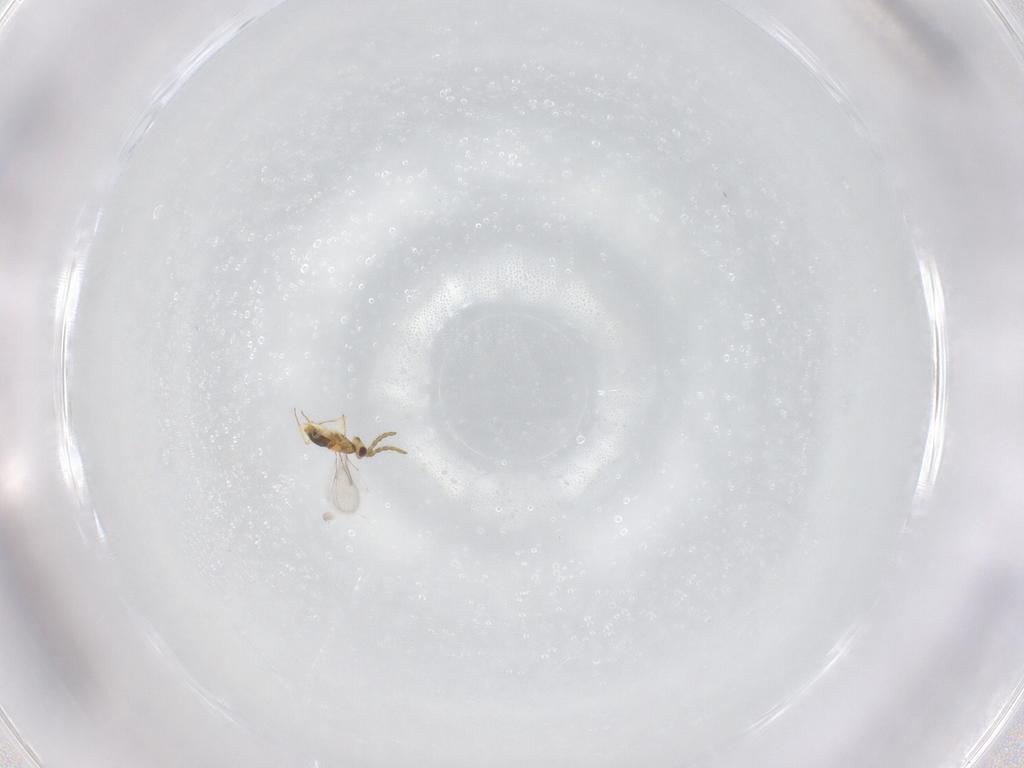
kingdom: Animalia
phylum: Arthropoda
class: Insecta
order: Hymenoptera
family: Aphelinidae
